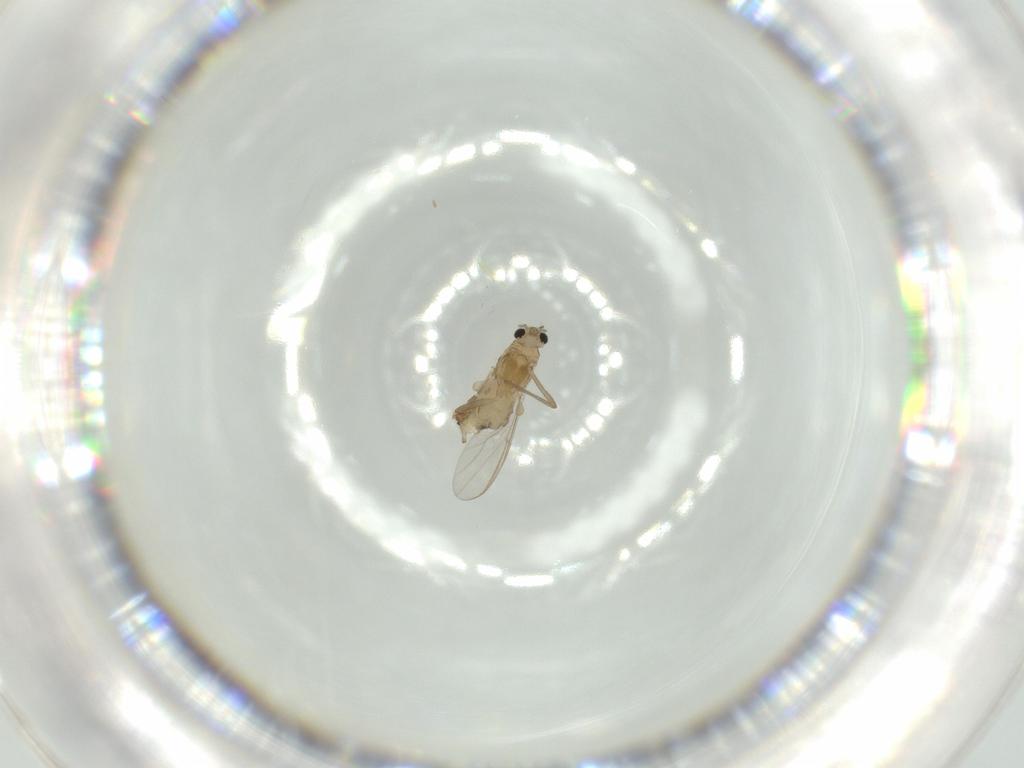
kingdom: Animalia
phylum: Arthropoda
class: Insecta
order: Diptera
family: Chironomidae
